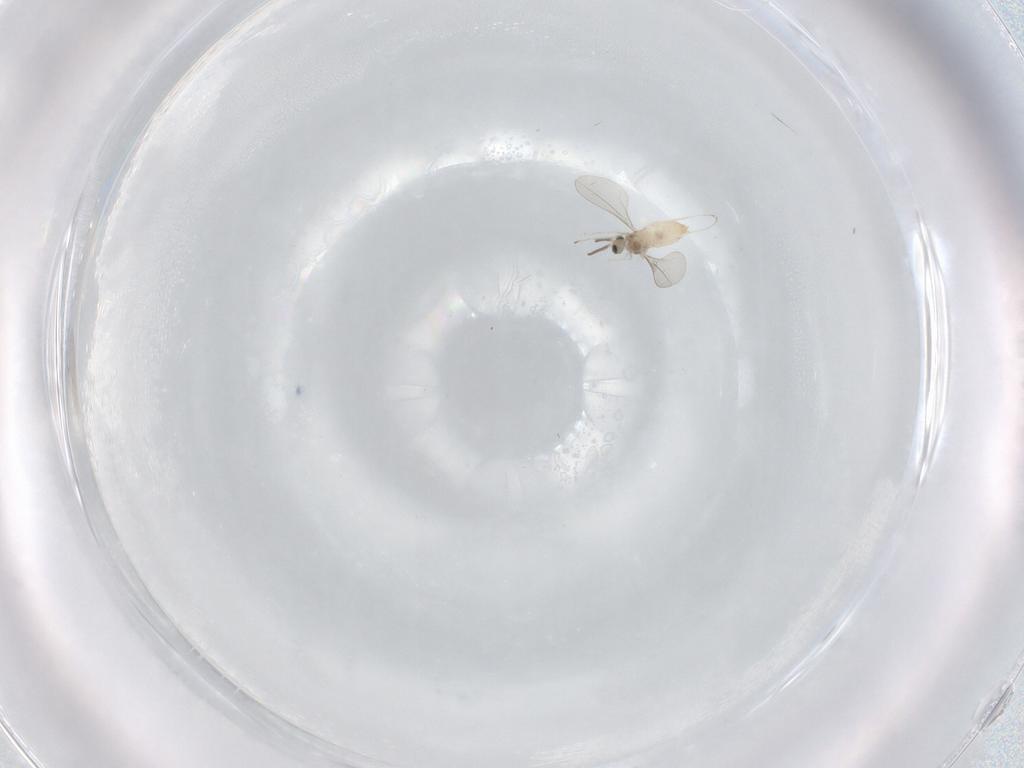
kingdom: Animalia
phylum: Arthropoda
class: Insecta
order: Diptera
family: Cecidomyiidae
